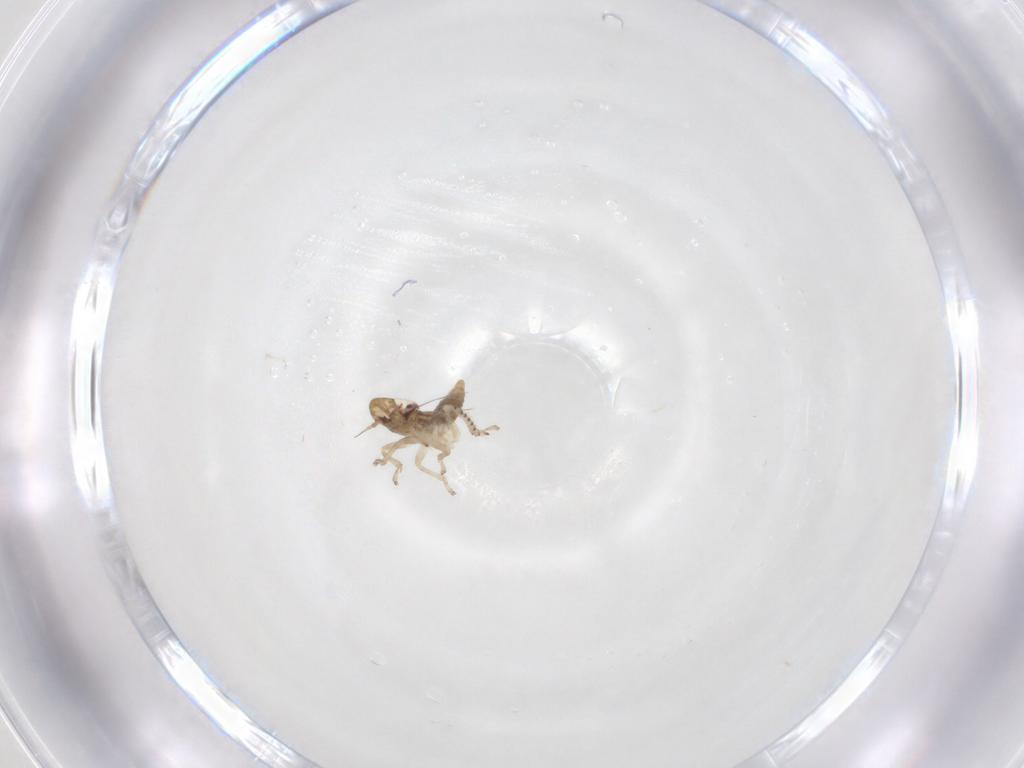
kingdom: Animalia
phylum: Arthropoda
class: Insecta
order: Hemiptera
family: Cicadellidae
